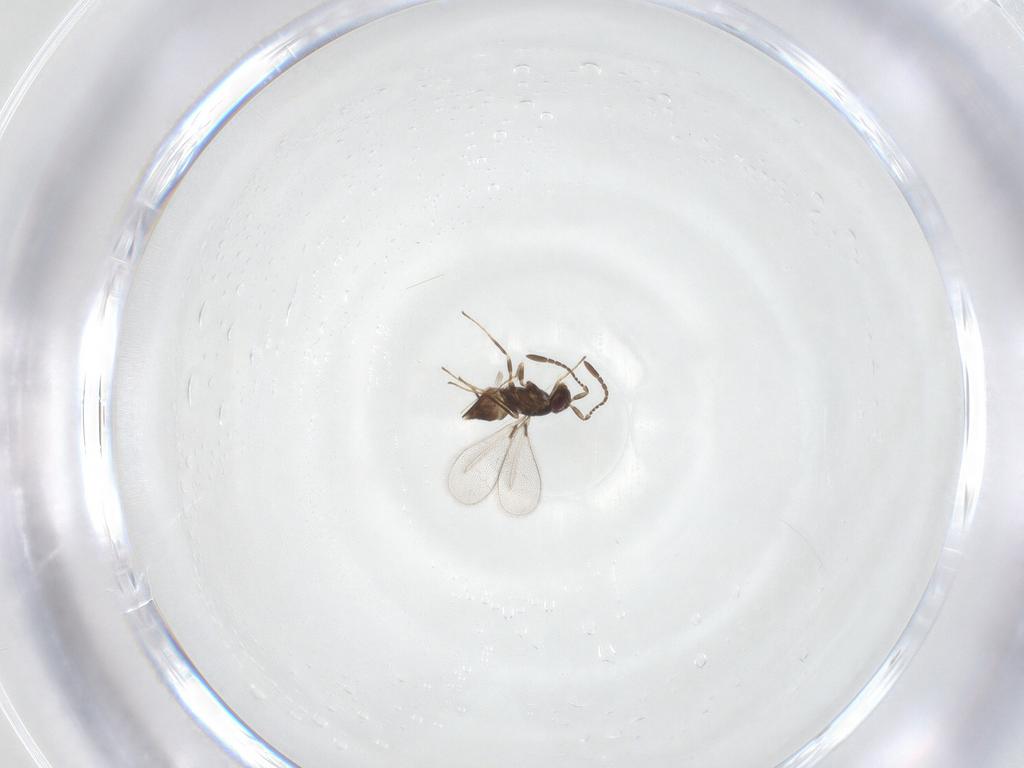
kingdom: Animalia
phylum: Arthropoda
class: Insecta
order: Hymenoptera
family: Mymaridae
